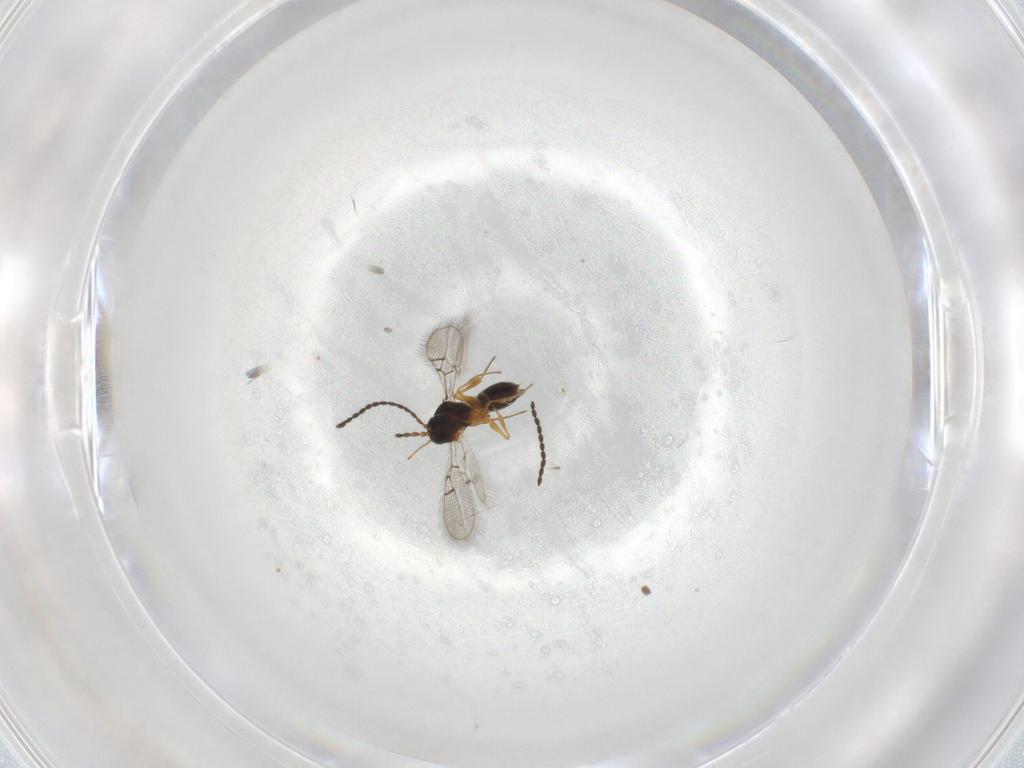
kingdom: Animalia
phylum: Arthropoda
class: Insecta
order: Hymenoptera
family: Figitidae
